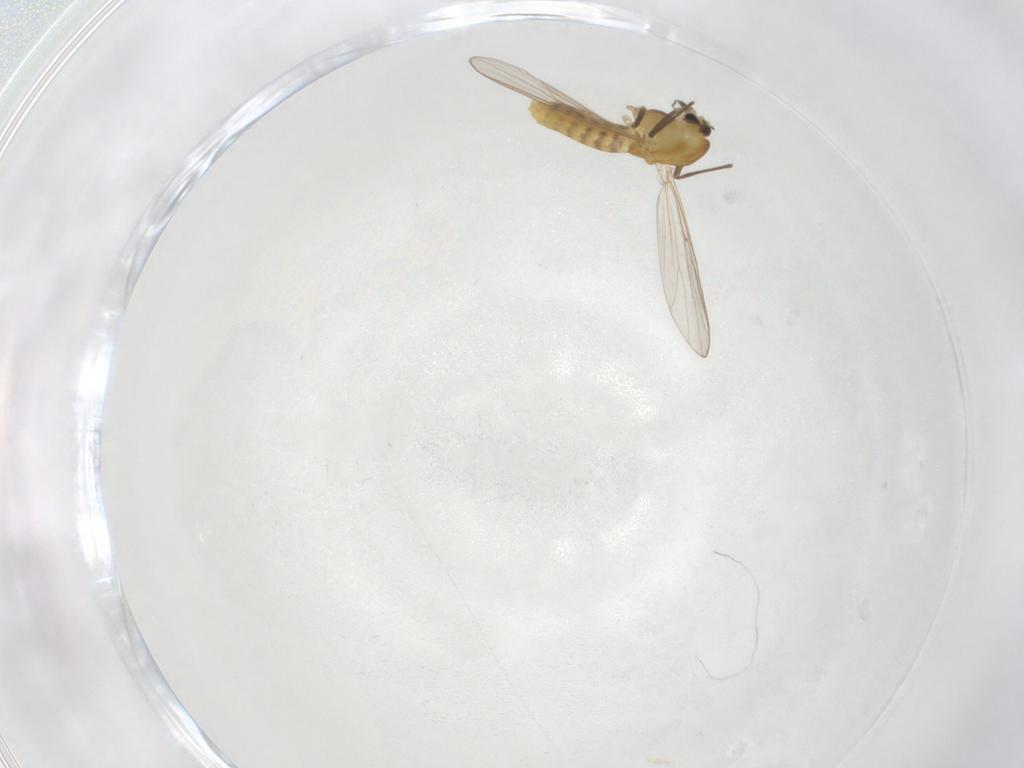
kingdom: Animalia
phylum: Arthropoda
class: Insecta
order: Diptera
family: Chironomidae
